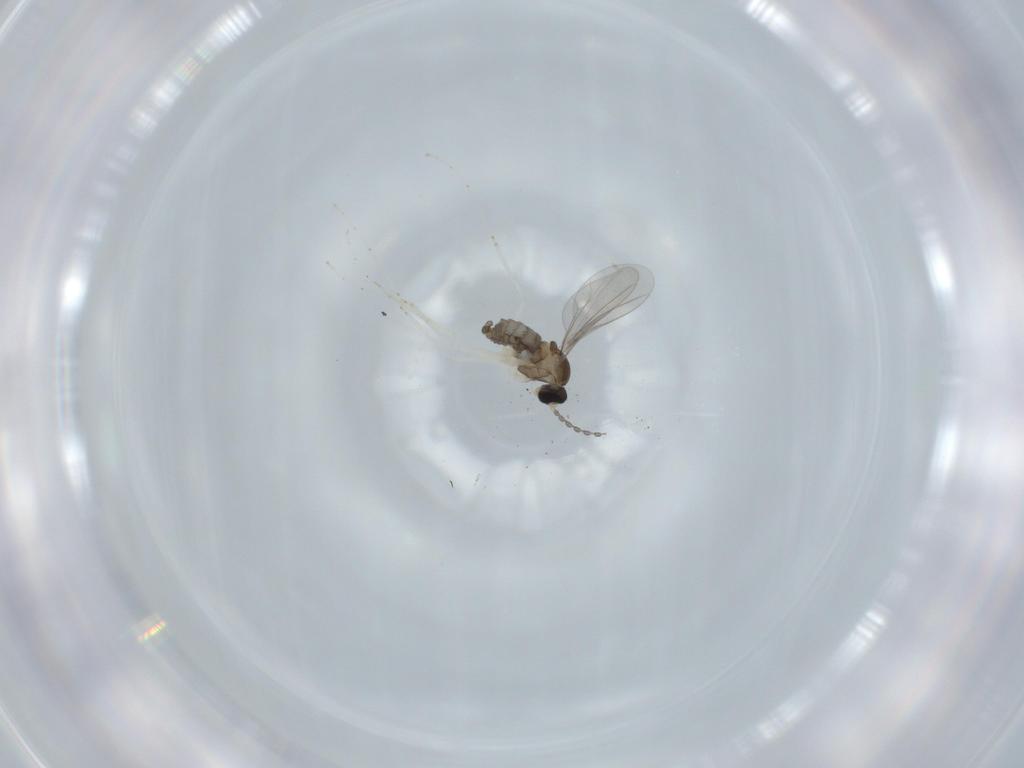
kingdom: Animalia
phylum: Arthropoda
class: Insecta
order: Diptera
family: Cecidomyiidae
